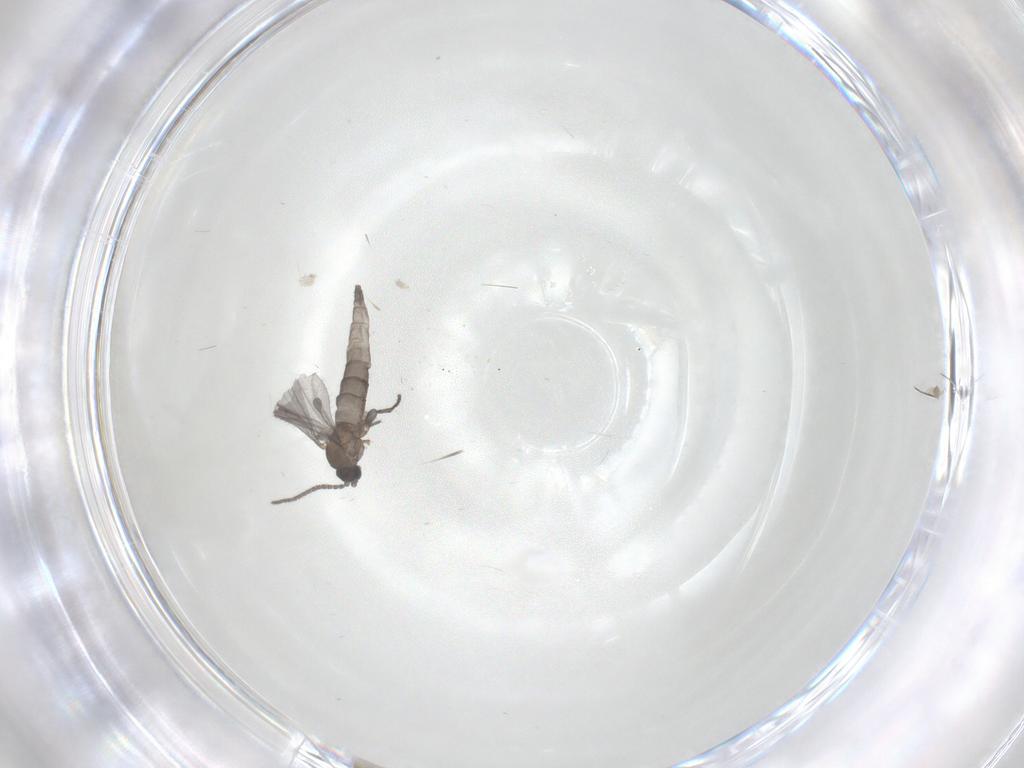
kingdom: Animalia
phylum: Arthropoda
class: Insecta
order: Diptera
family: Sciaridae
